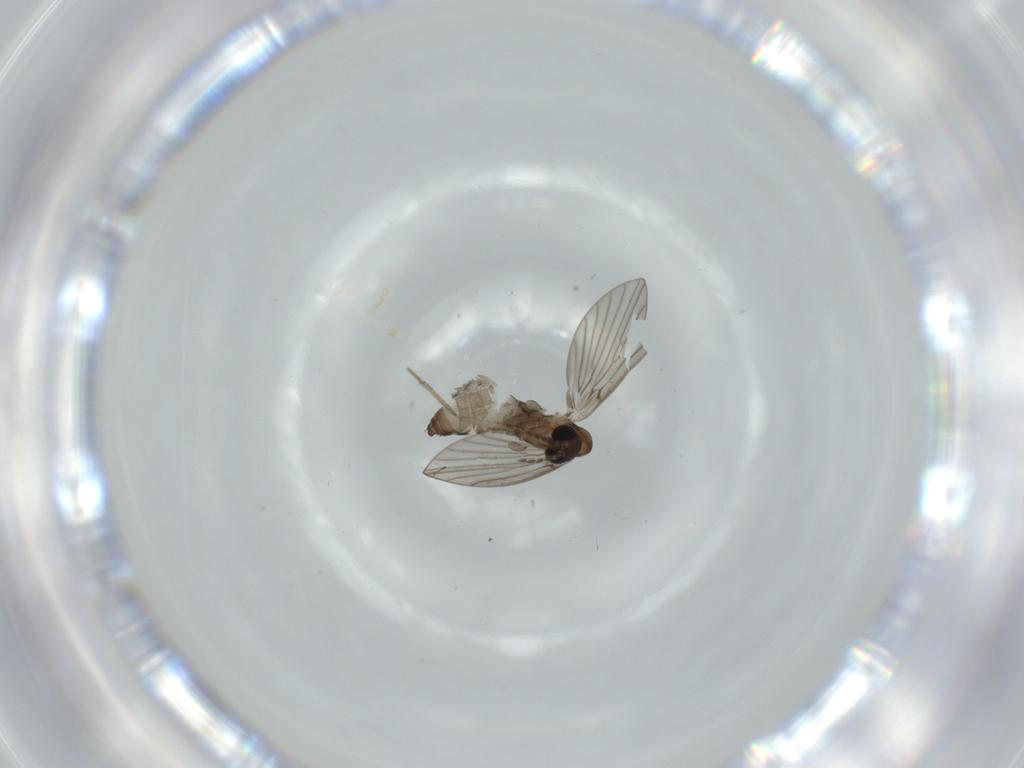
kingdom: Animalia
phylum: Arthropoda
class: Insecta
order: Diptera
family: Psychodidae
